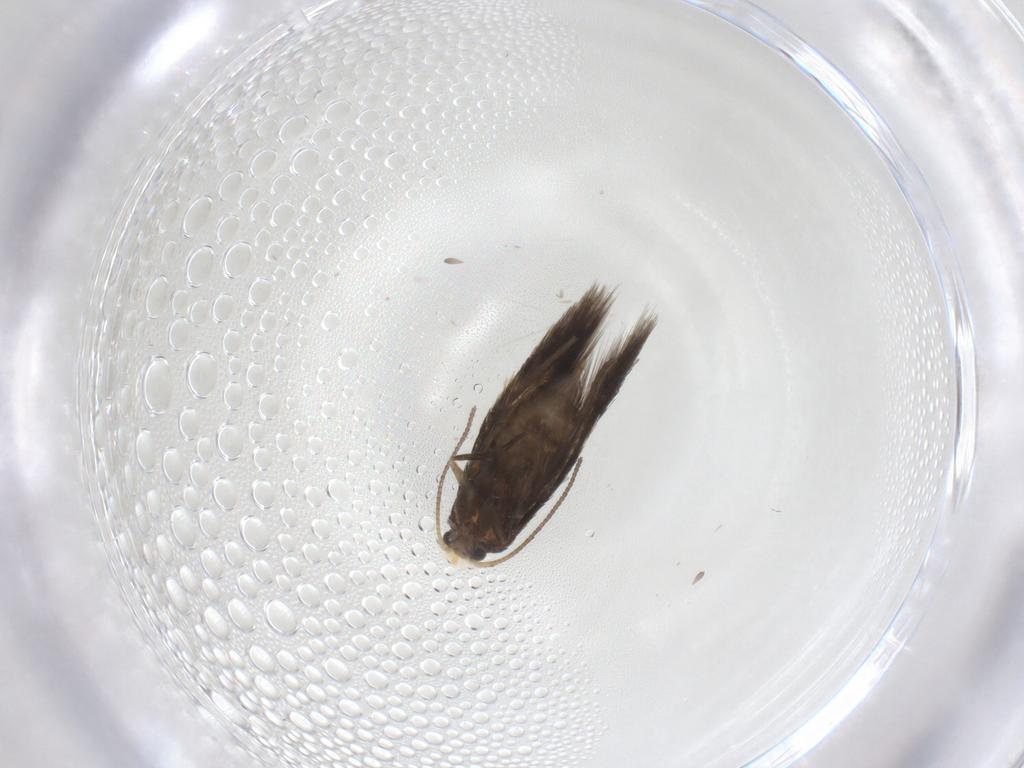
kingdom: Animalia
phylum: Arthropoda
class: Insecta
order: Lepidoptera
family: Nepticulidae
